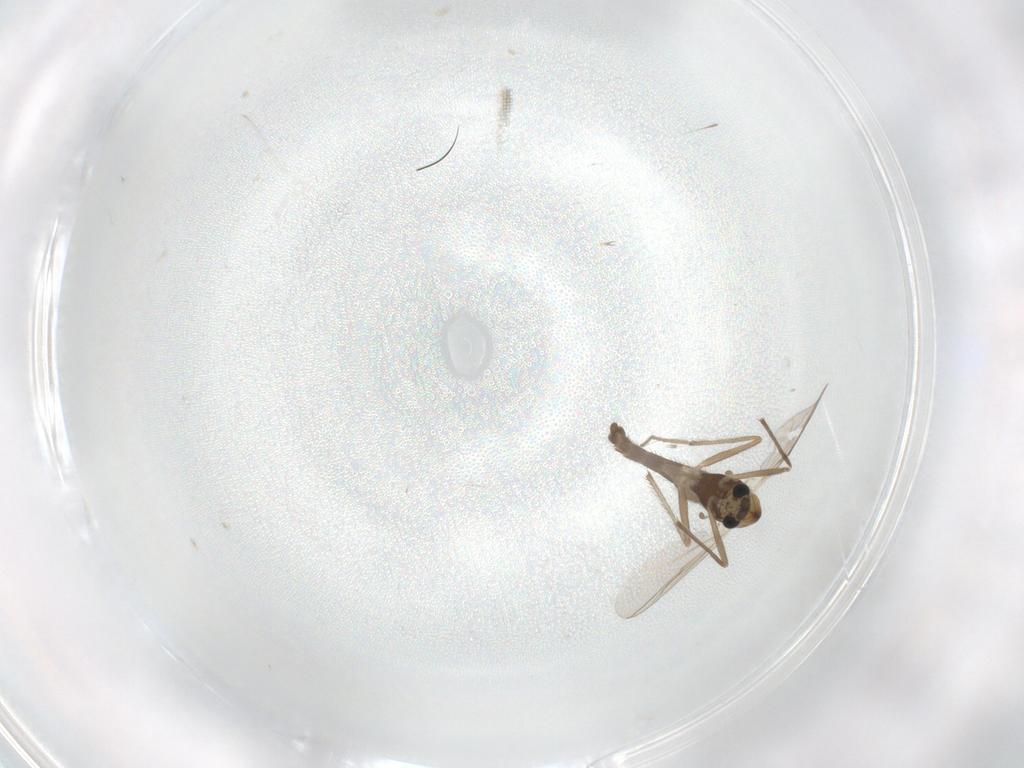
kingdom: Animalia
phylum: Arthropoda
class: Insecta
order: Diptera
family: Chironomidae
